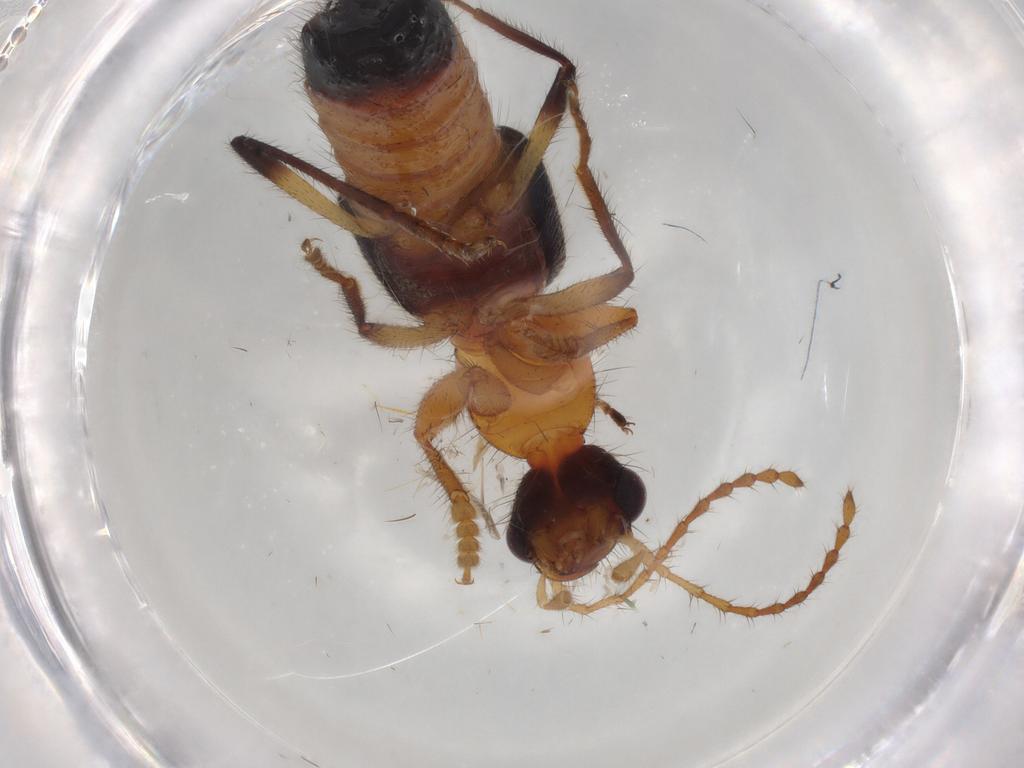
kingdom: Animalia
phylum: Arthropoda
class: Insecta
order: Coleoptera
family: Staphylinidae
